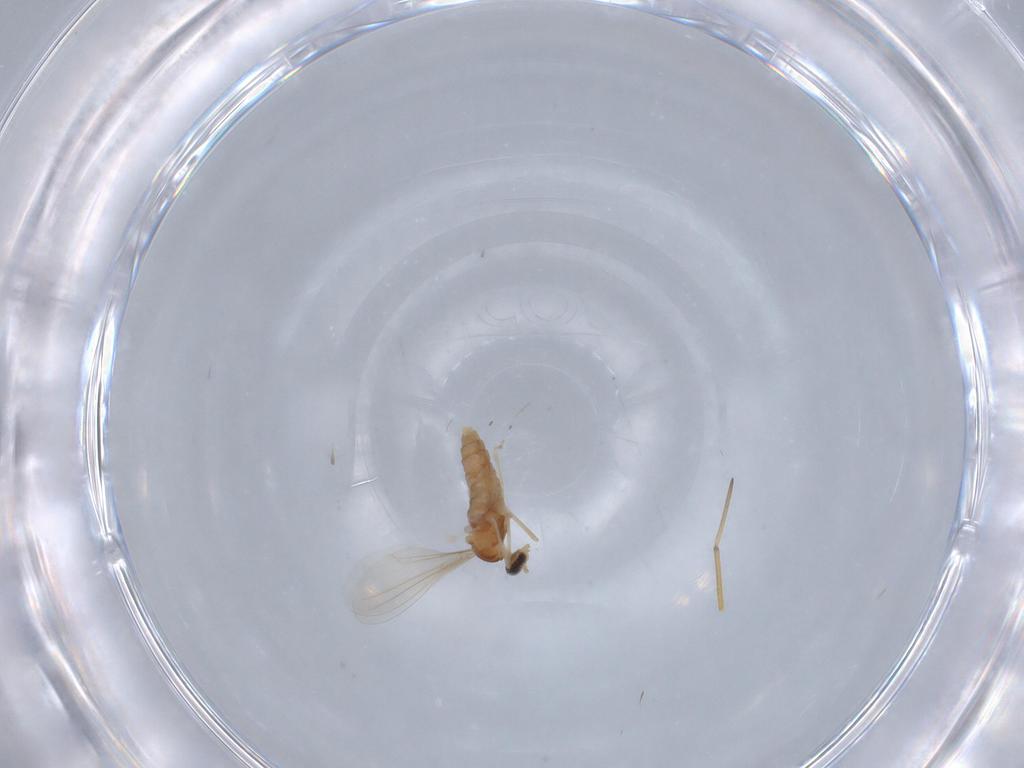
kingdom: Animalia
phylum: Arthropoda
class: Insecta
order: Diptera
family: Cecidomyiidae
